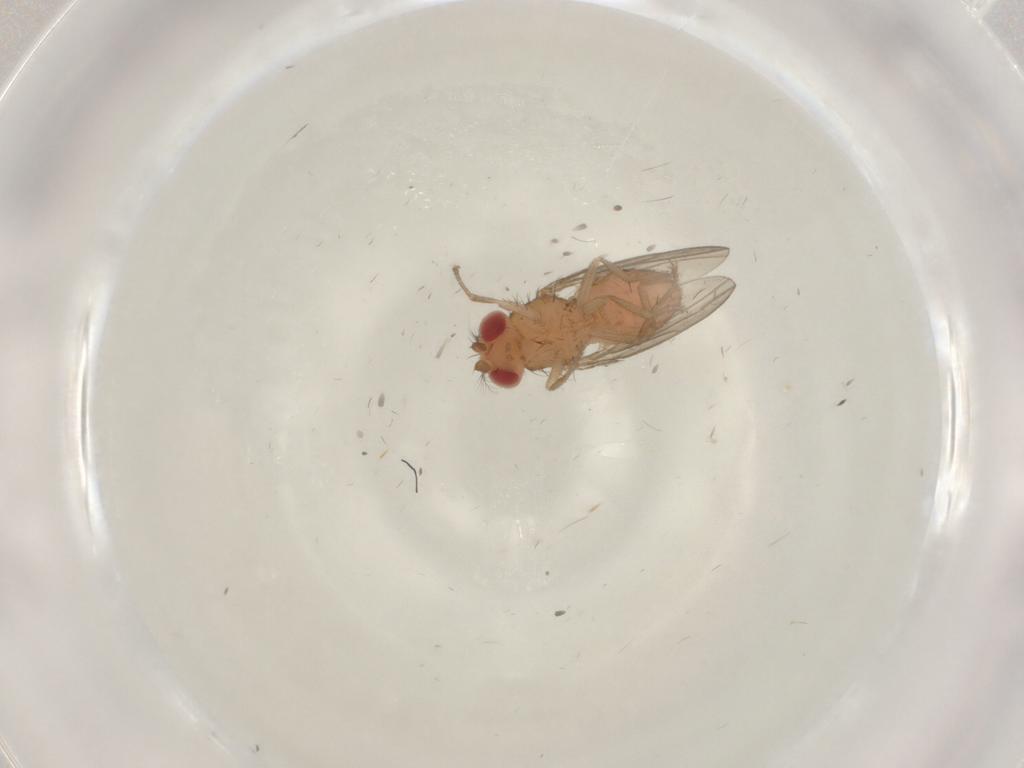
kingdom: Animalia
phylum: Arthropoda
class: Insecta
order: Diptera
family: Drosophilidae
